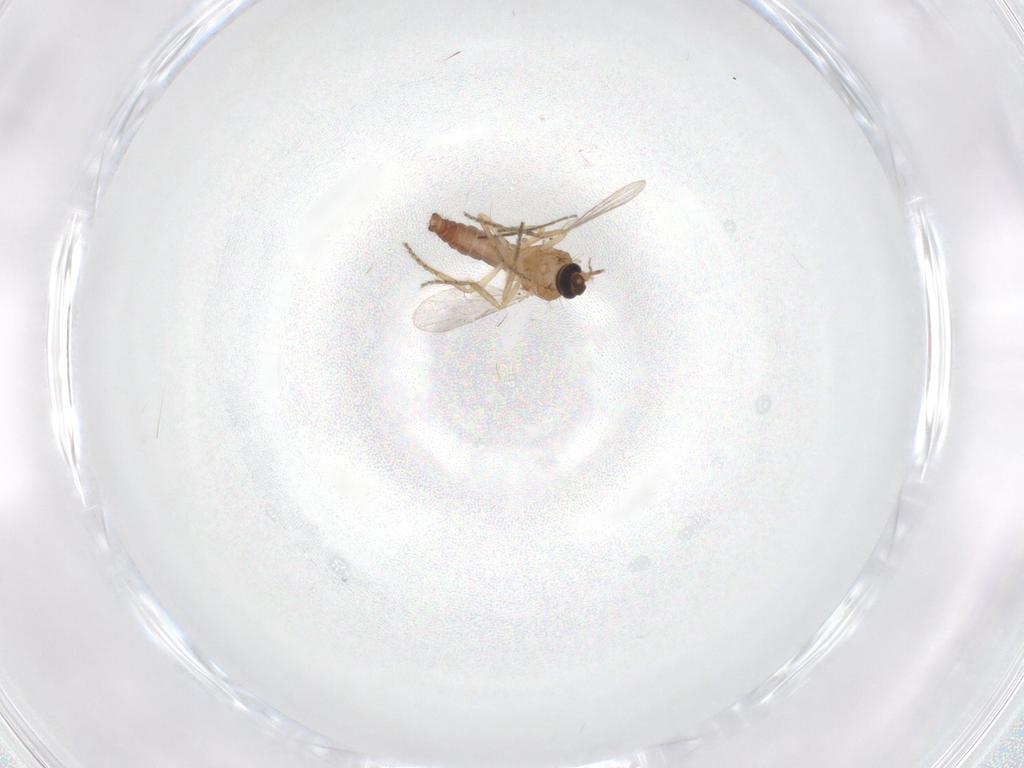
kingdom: Animalia
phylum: Arthropoda
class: Insecta
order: Diptera
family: Ceratopogonidae
